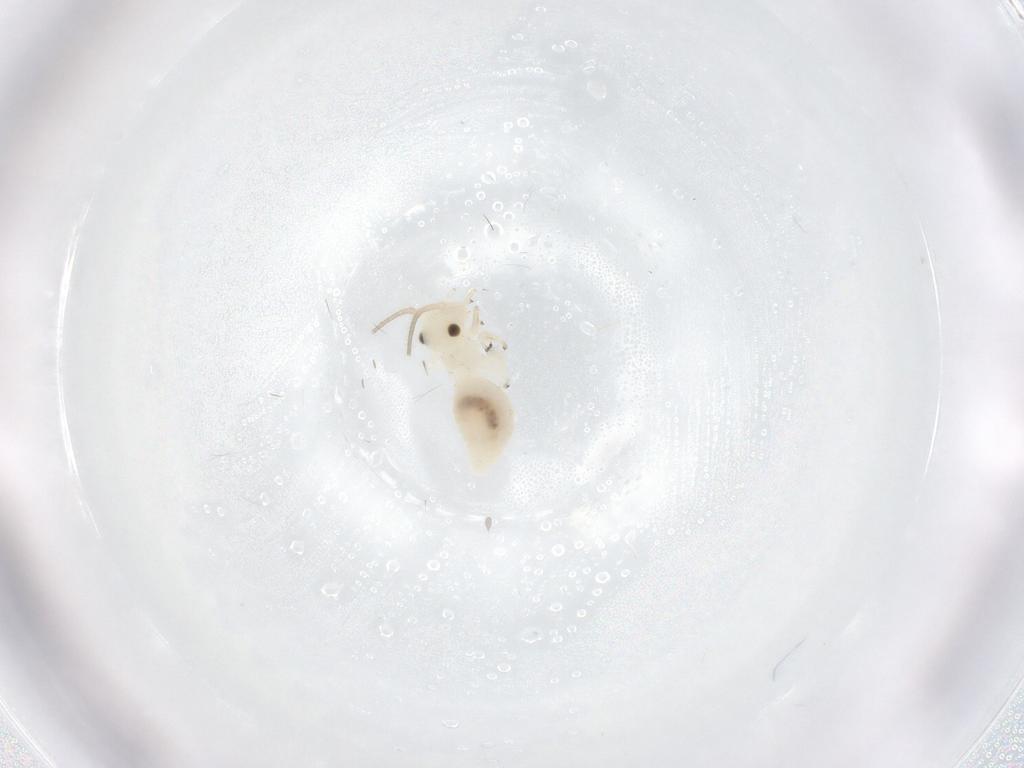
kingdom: Animalia
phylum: Arthropoda
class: Insecta
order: Psocodea
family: Caeciliusidae
